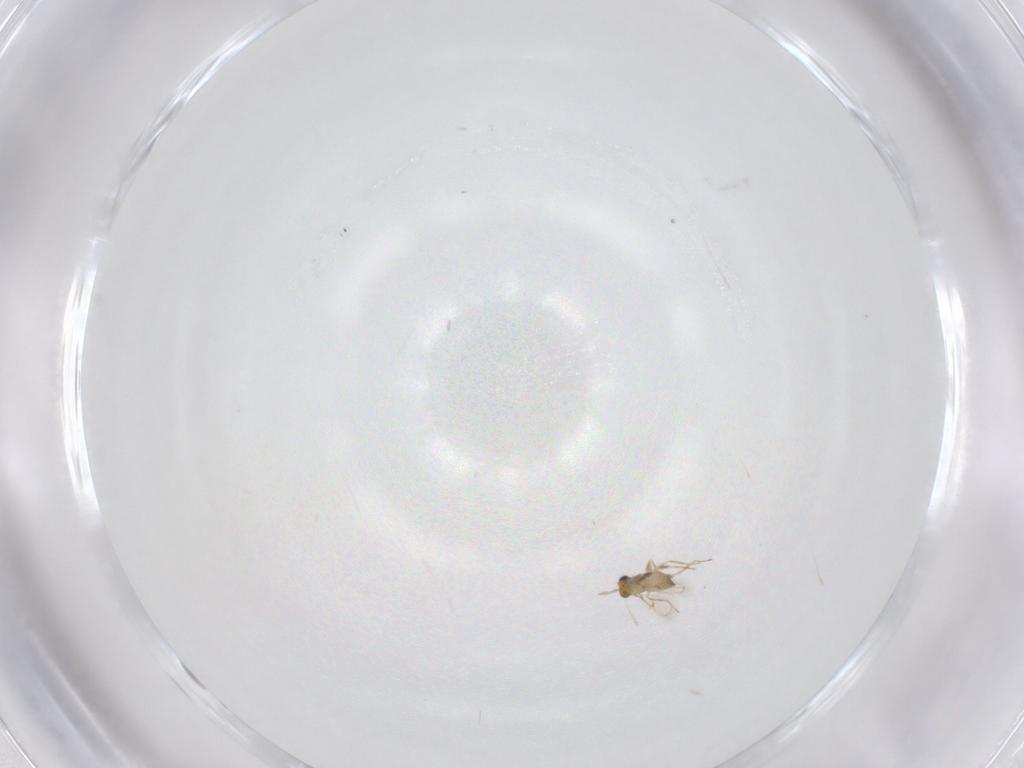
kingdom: Animalia
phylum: Arthropoda
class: Insecta
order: Hymenoptera
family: Trichogrammatidae
